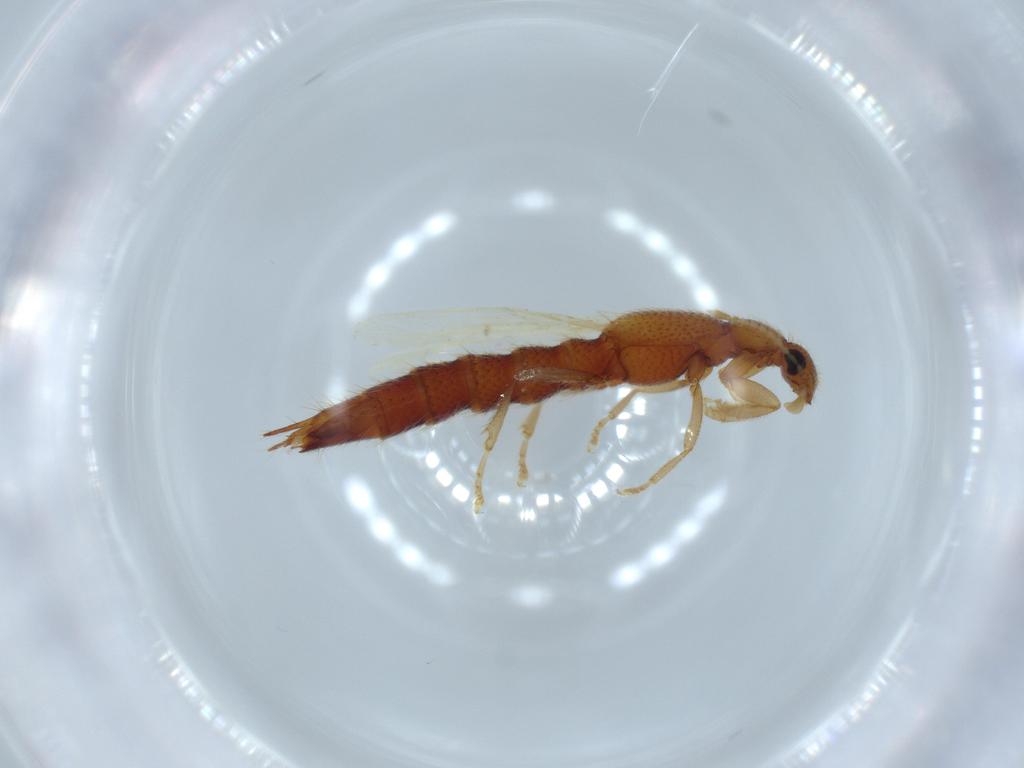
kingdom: Animalia
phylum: Arthropoda
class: Insecta
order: Coleoptera
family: Staphylinidae
